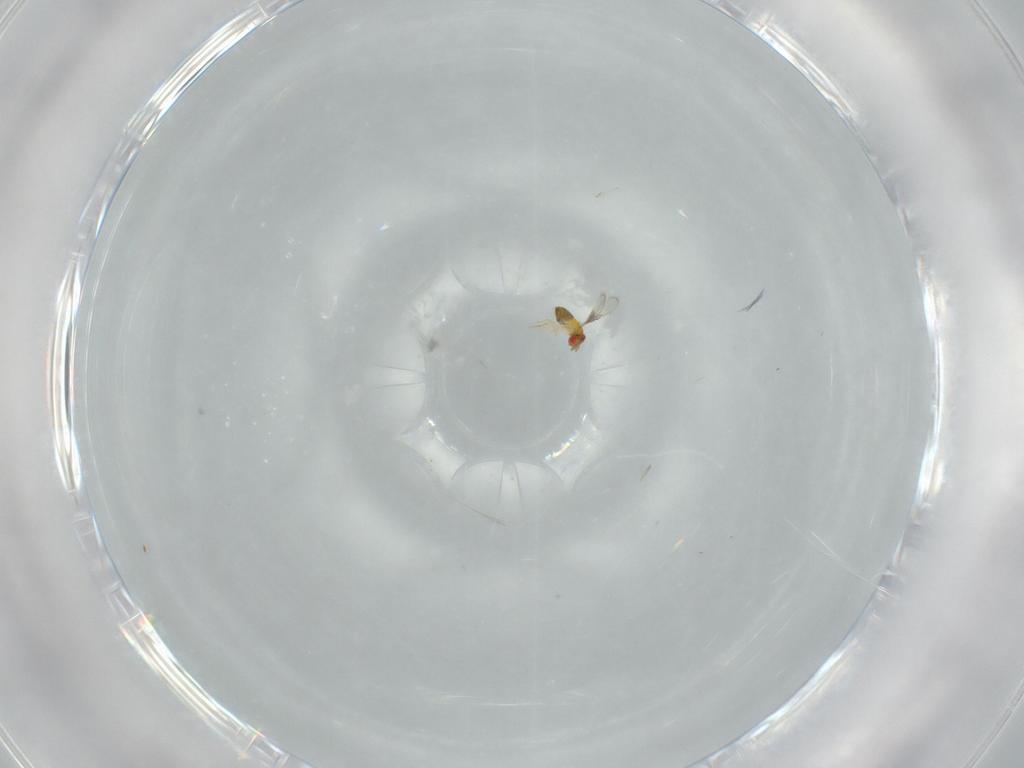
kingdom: Animalia
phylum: Arthropoda
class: Insecta
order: Hymenoptera
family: Trichogrammatidae
